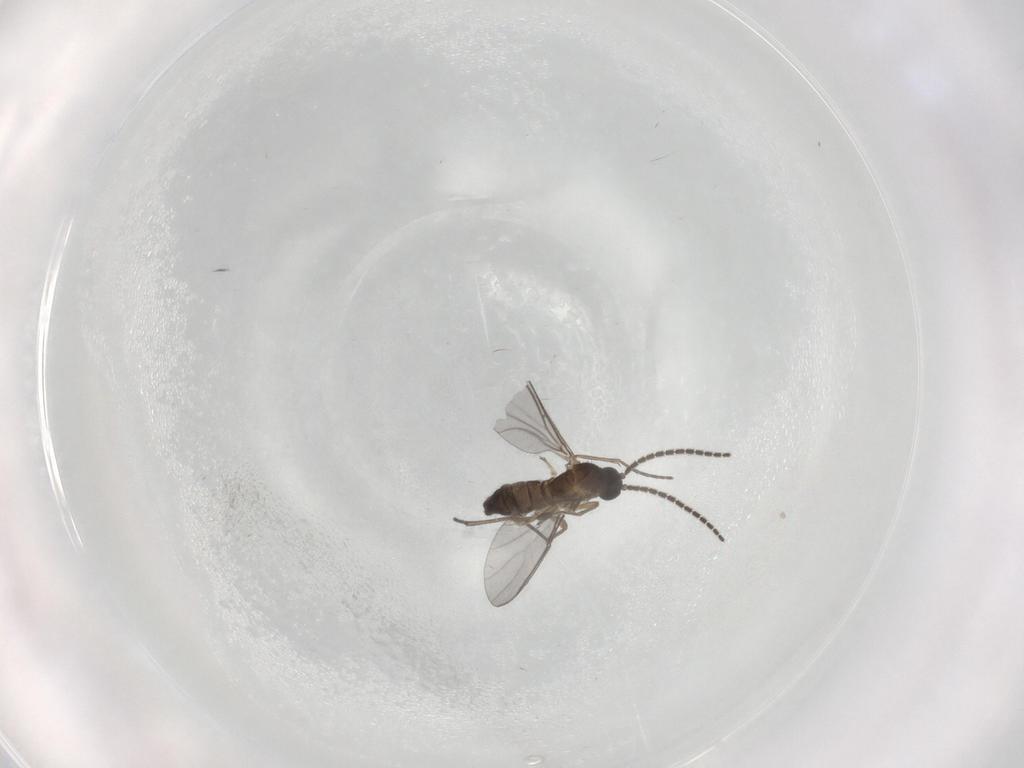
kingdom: Animalia
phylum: Arthropoda
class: Insecta
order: Diptera
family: Sciaridae
